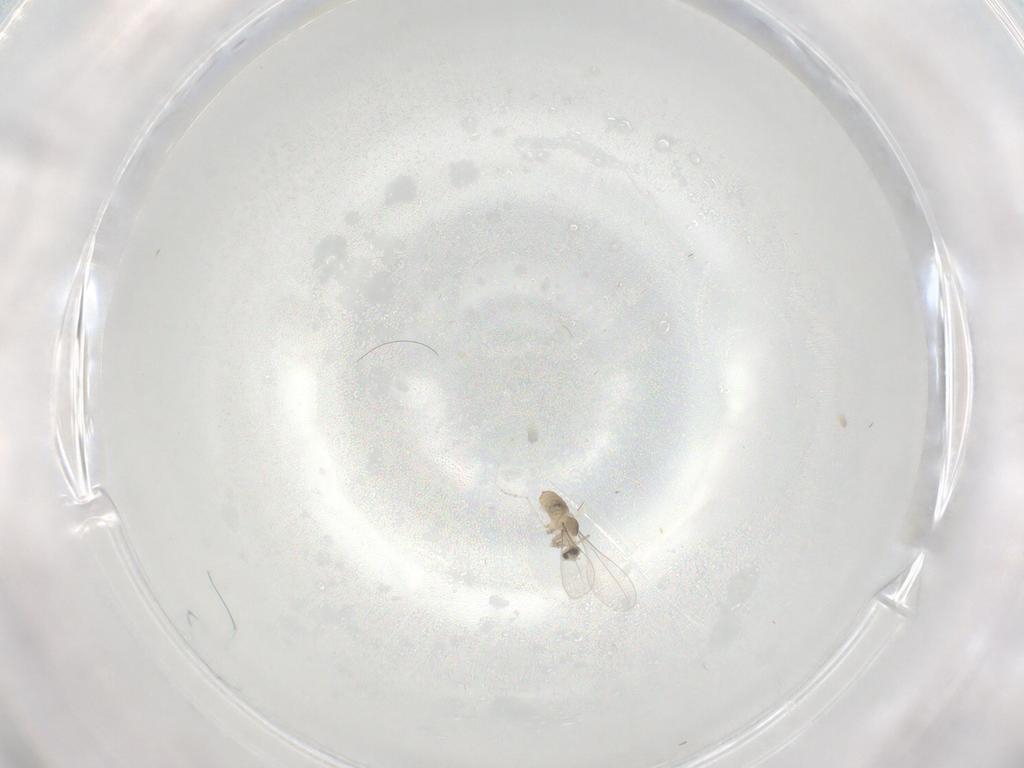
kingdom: Animalia
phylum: Arthropoda
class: Insecta
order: Diptera
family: Cecidomyiidae
